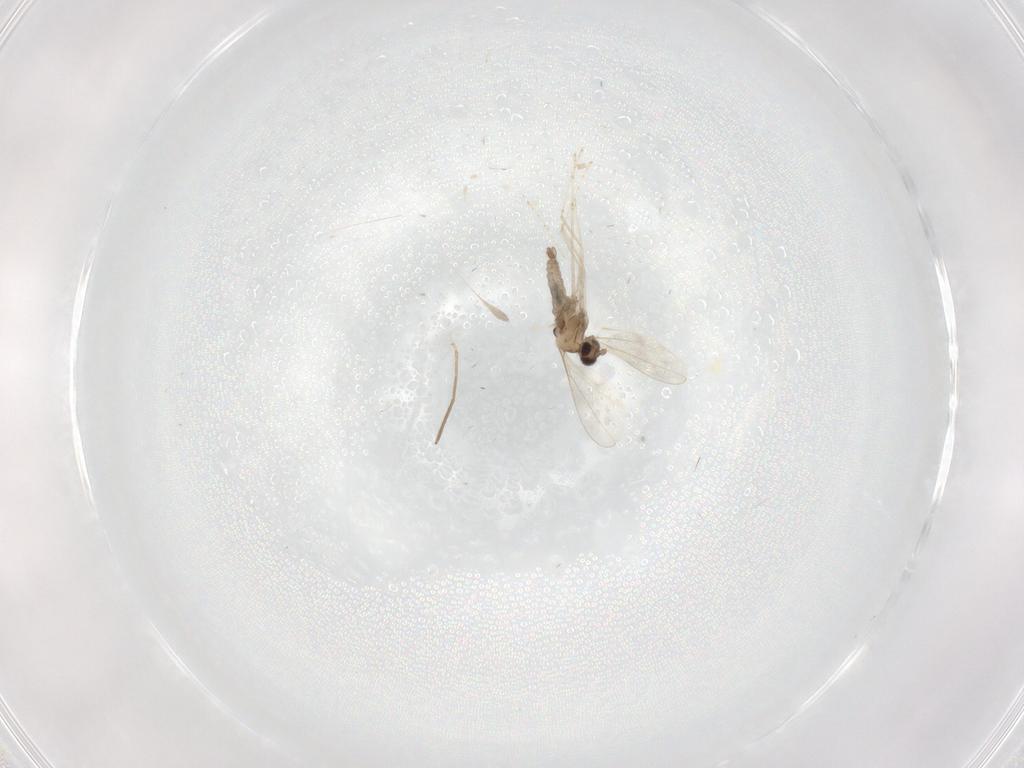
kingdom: Animalia
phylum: Arthropoda
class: Insecta
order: Diptera
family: Cecidomyiidae
